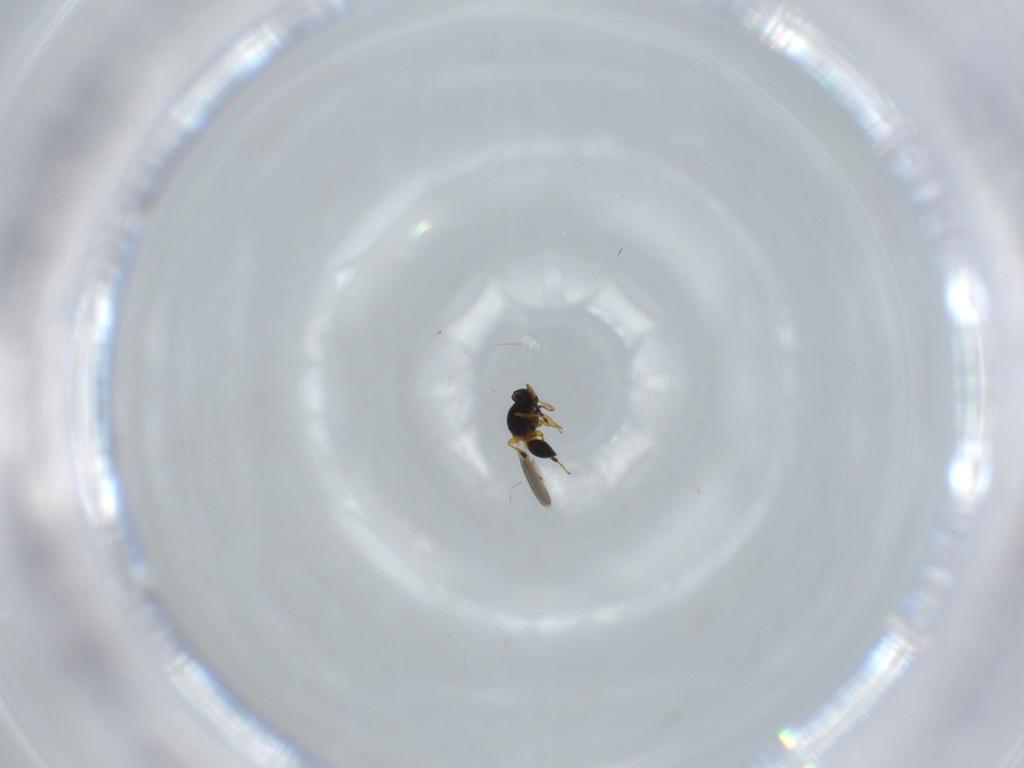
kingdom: Animalia
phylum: Arthropoda
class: Insecta
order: Hymenoptera
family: Platygastridae
